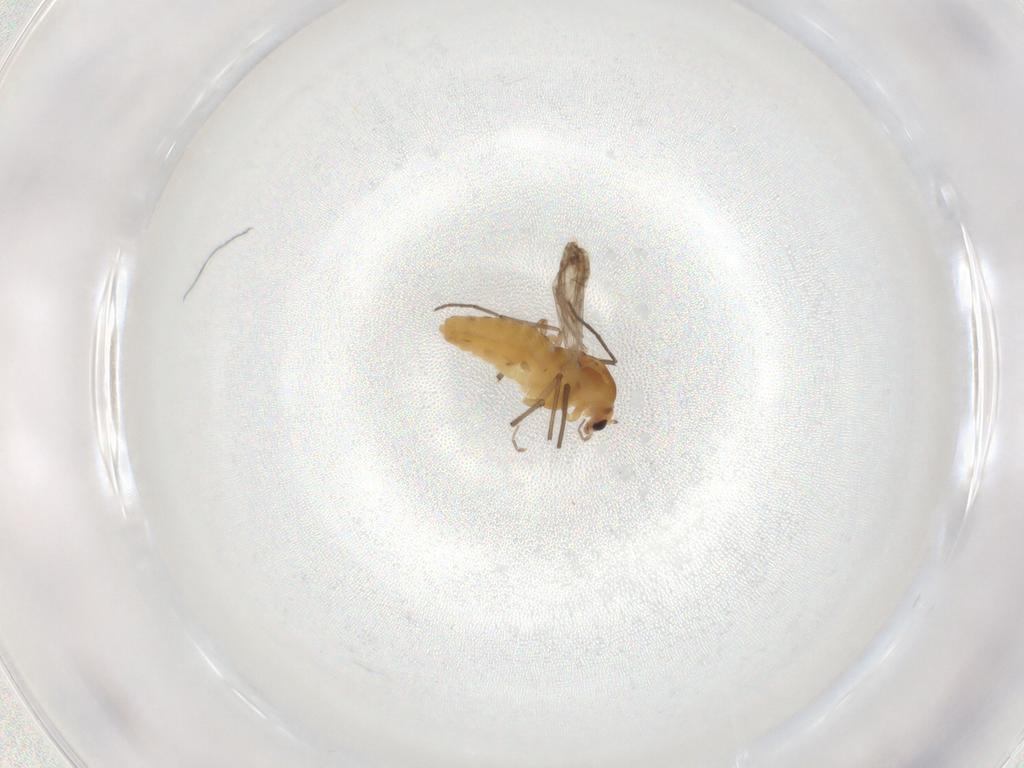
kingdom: Animalia
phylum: Arthropoda
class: Insecta
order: Diptera
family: Chironomidae
